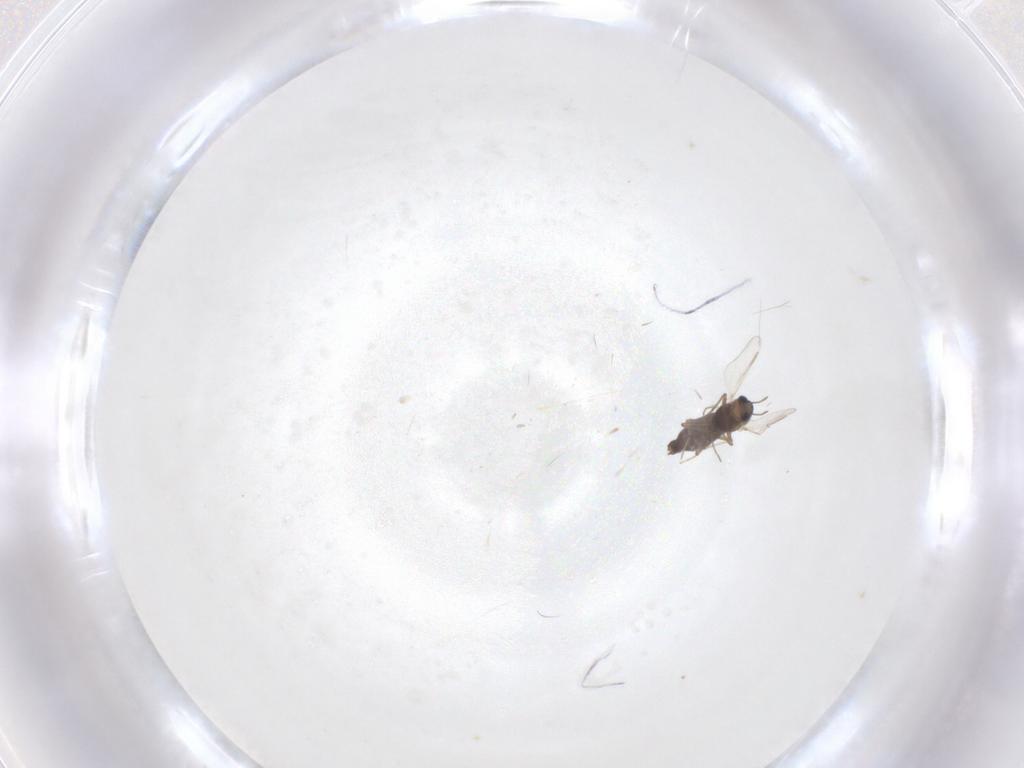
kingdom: Animalia
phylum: Arthropoda
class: Insecta
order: Diptera
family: Chironomidae
